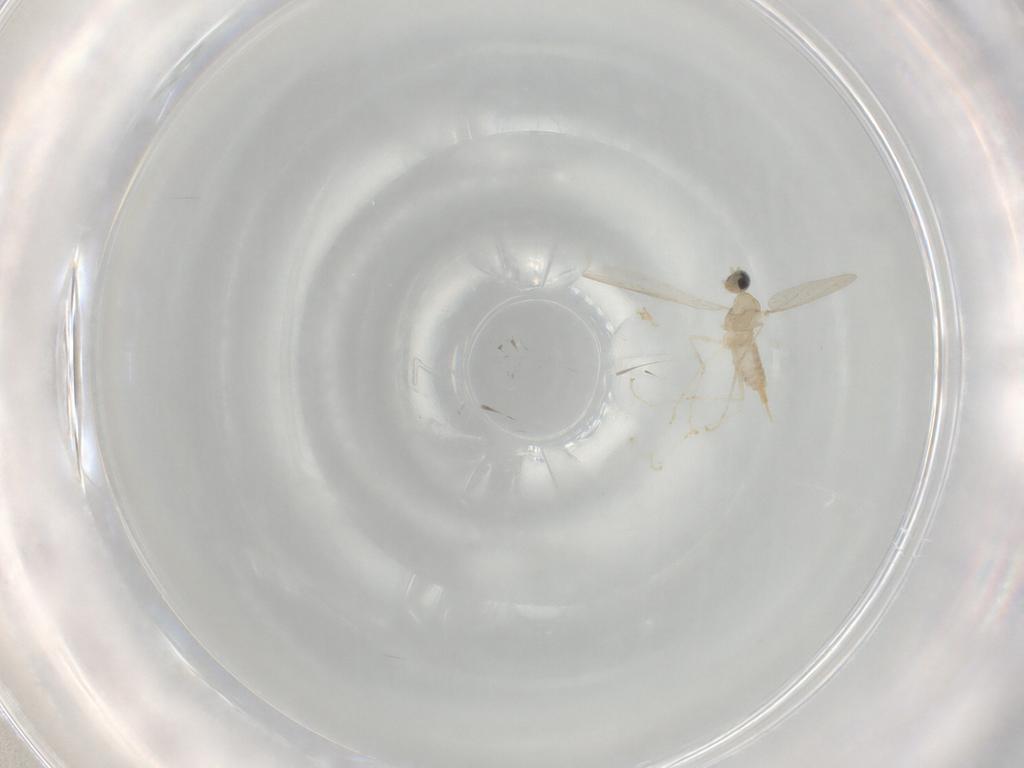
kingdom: Animalia
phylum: Arthropoda
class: Insecta
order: Diptera
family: Cecidomyiidae
